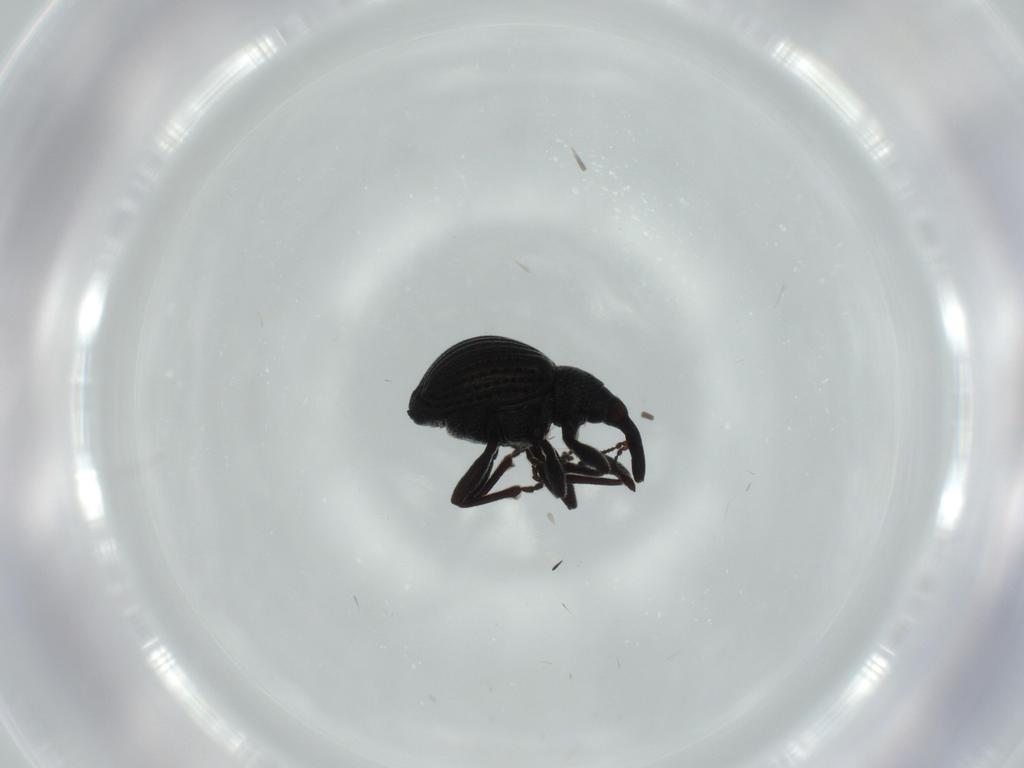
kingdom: Animalia
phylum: Arthropoda
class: Insecta
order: Coleoptera
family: Brentidae
